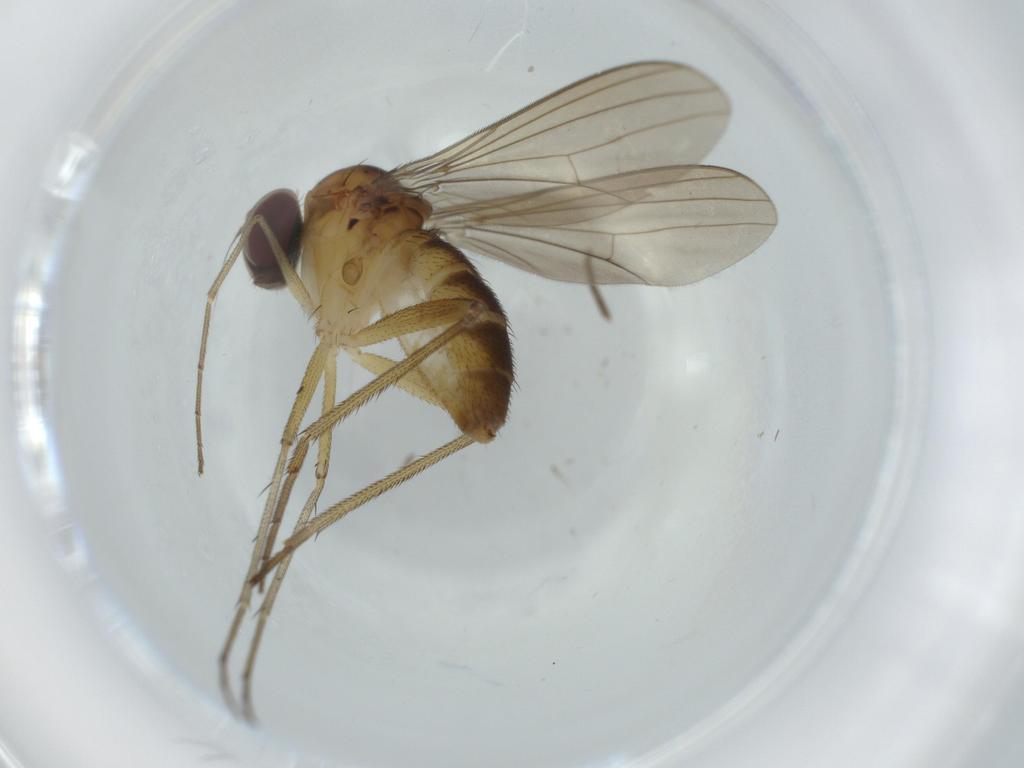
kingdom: Animalia
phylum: Arthropoda
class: Insecta
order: Diptera
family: Dolichopodidae
